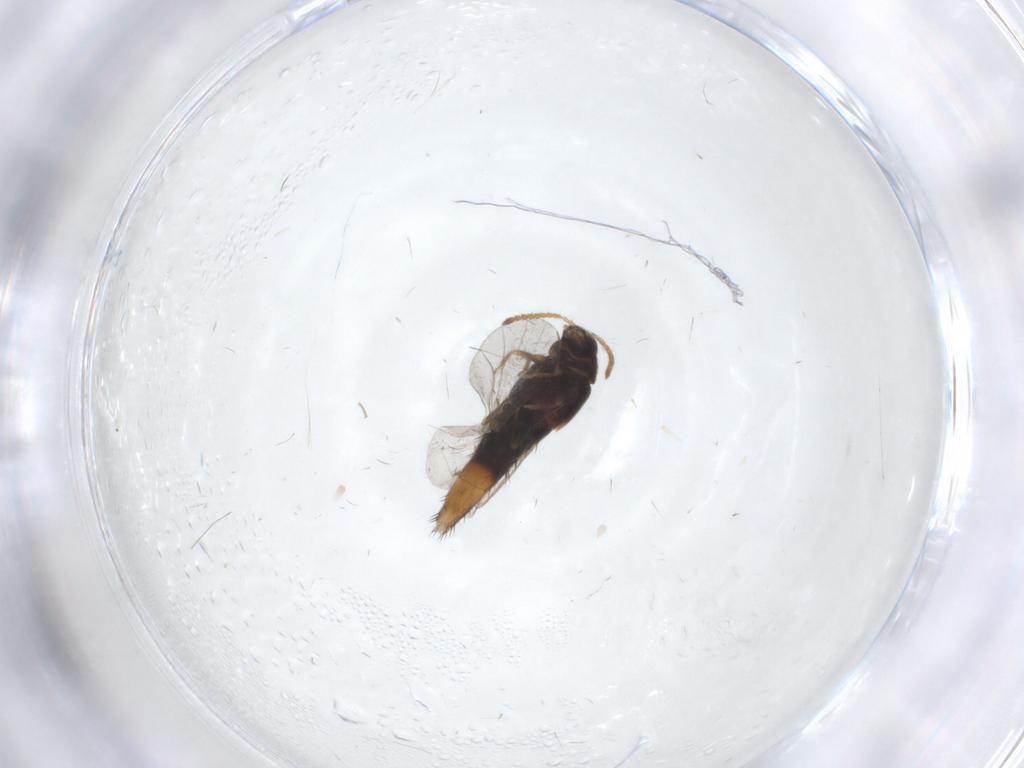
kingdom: Animalia
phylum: Arthropoda
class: Insecta
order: Coleoptera
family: Staphylinidae
